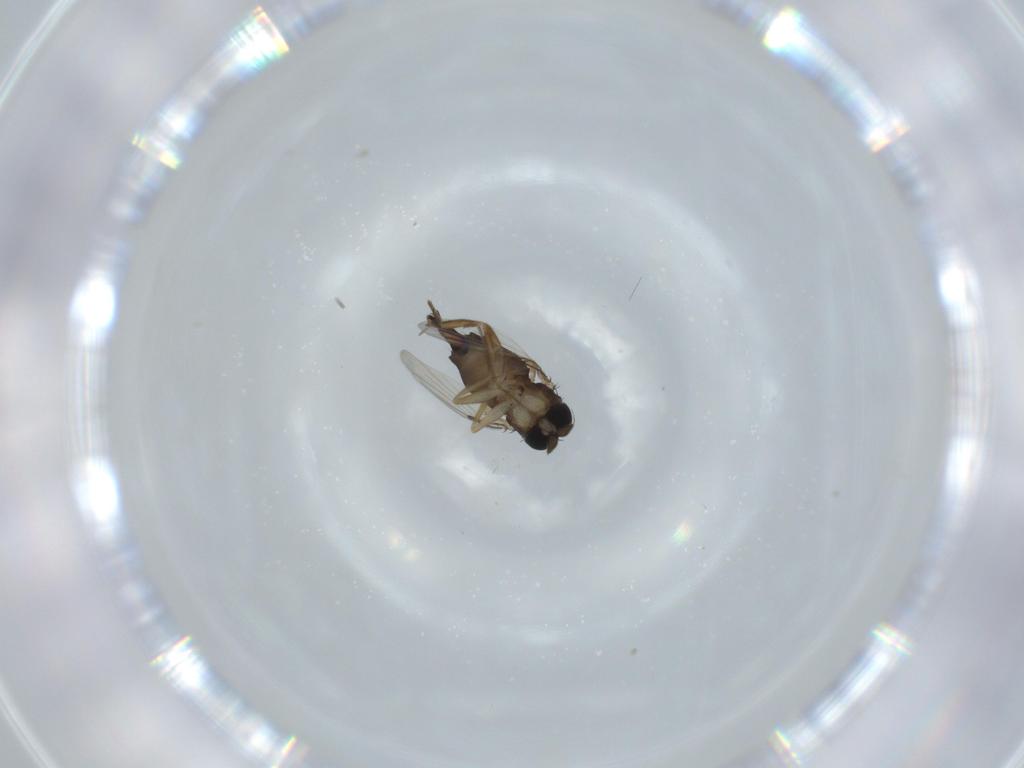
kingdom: Animalia
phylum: Arthropoda
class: Insecta
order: Diptera
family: Phoridae
